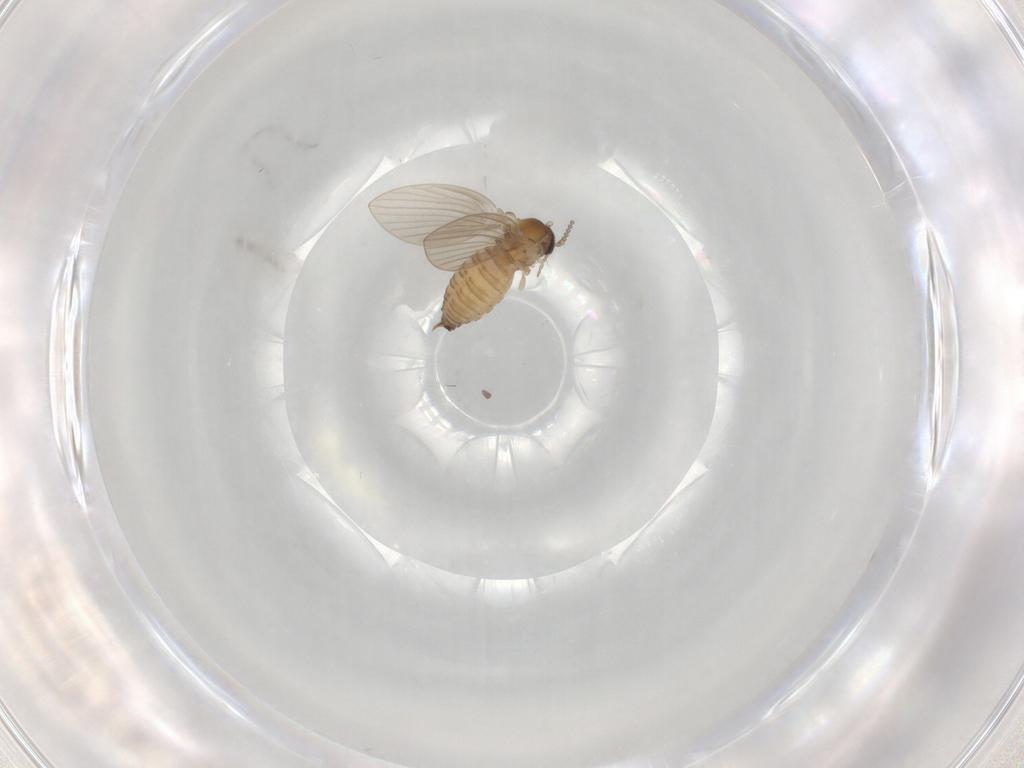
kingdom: Animalia
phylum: Arthropoda
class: Insecta
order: Diptera
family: Psychodidae
